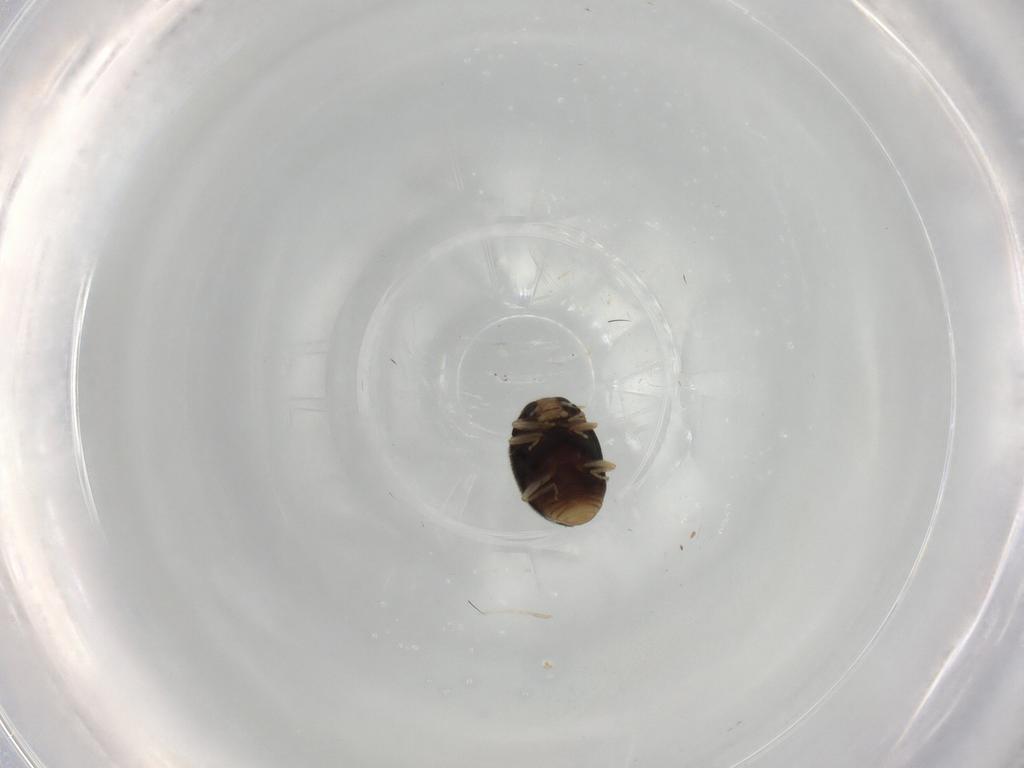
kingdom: Animalia
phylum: Arthropoda
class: Insecta
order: Coleoptera
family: Coccinellidae
